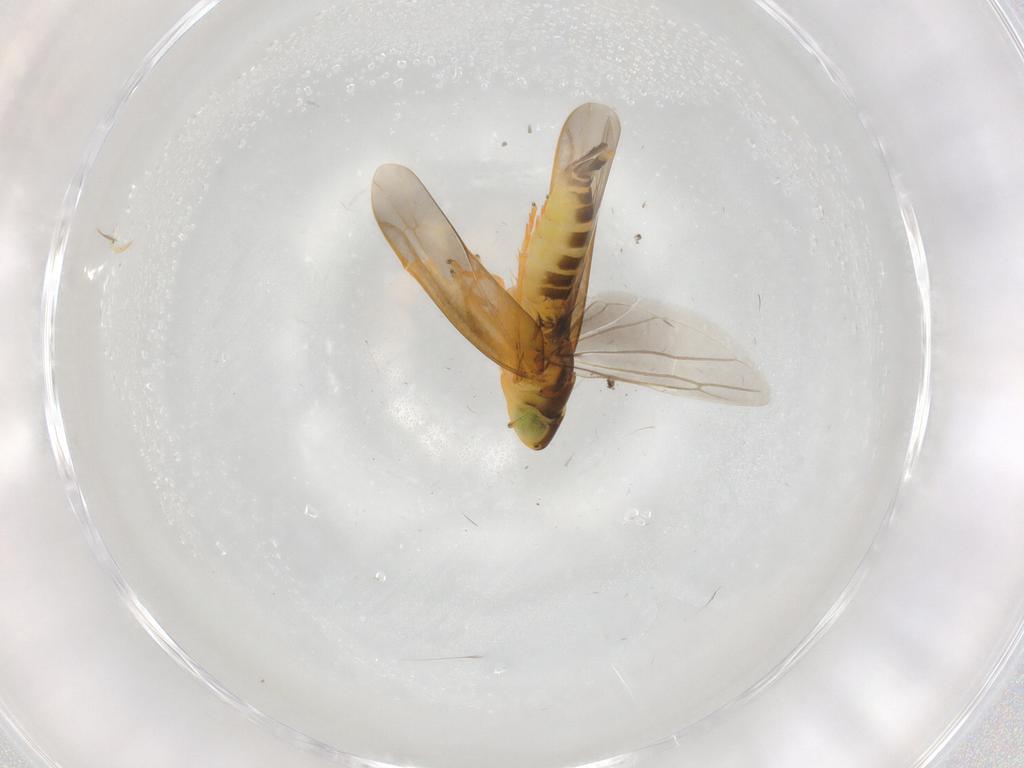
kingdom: Animalia
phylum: Arthropoda
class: Insecta
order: Hemiptera
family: Cicadellidae
